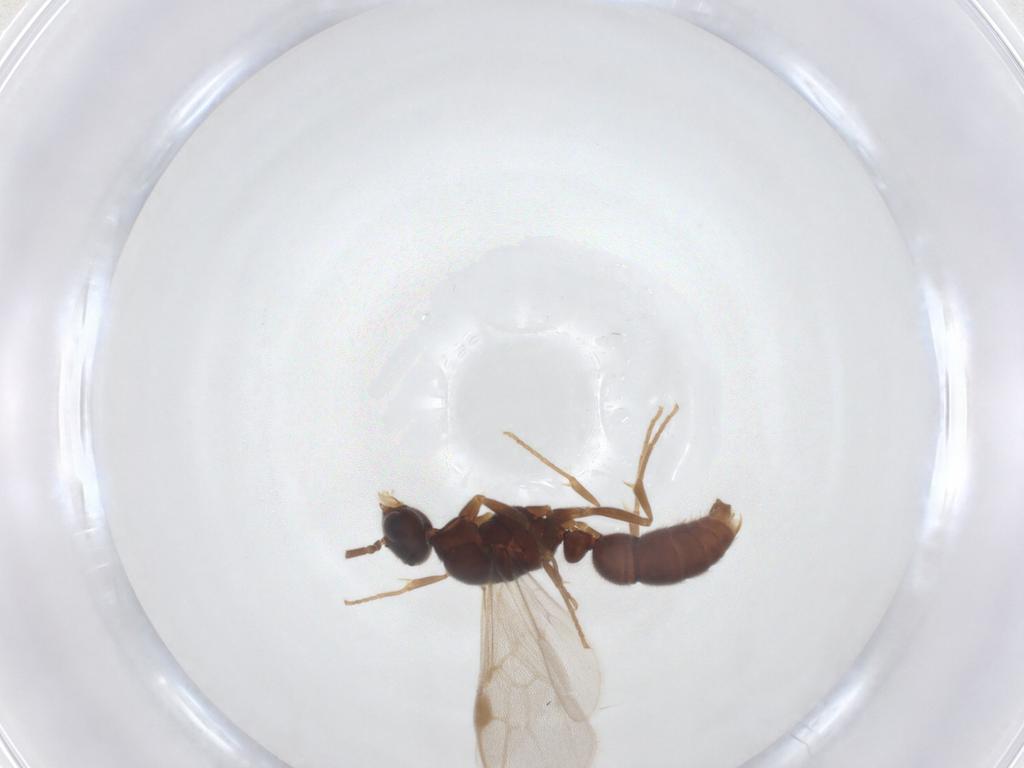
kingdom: Animalia
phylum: Arthropoda
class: Insecta
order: Hymenoptera
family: Formicidae
